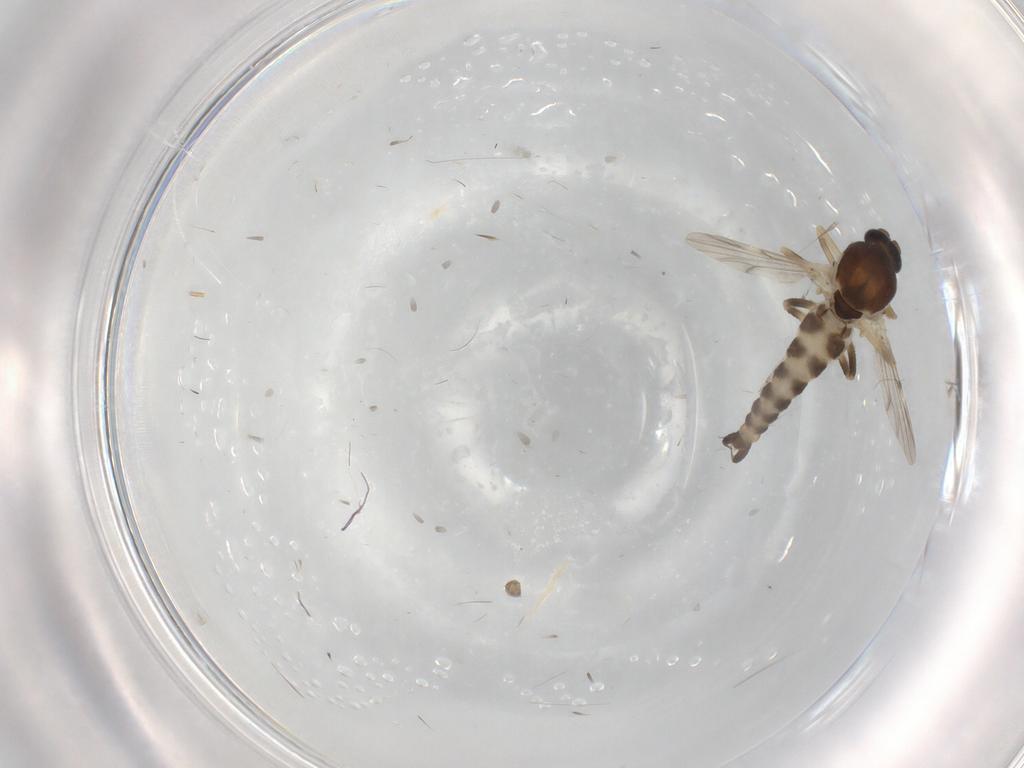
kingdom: Animalia
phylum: Arthropoda
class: Insecta
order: Diptera
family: Ceratopogonidae
